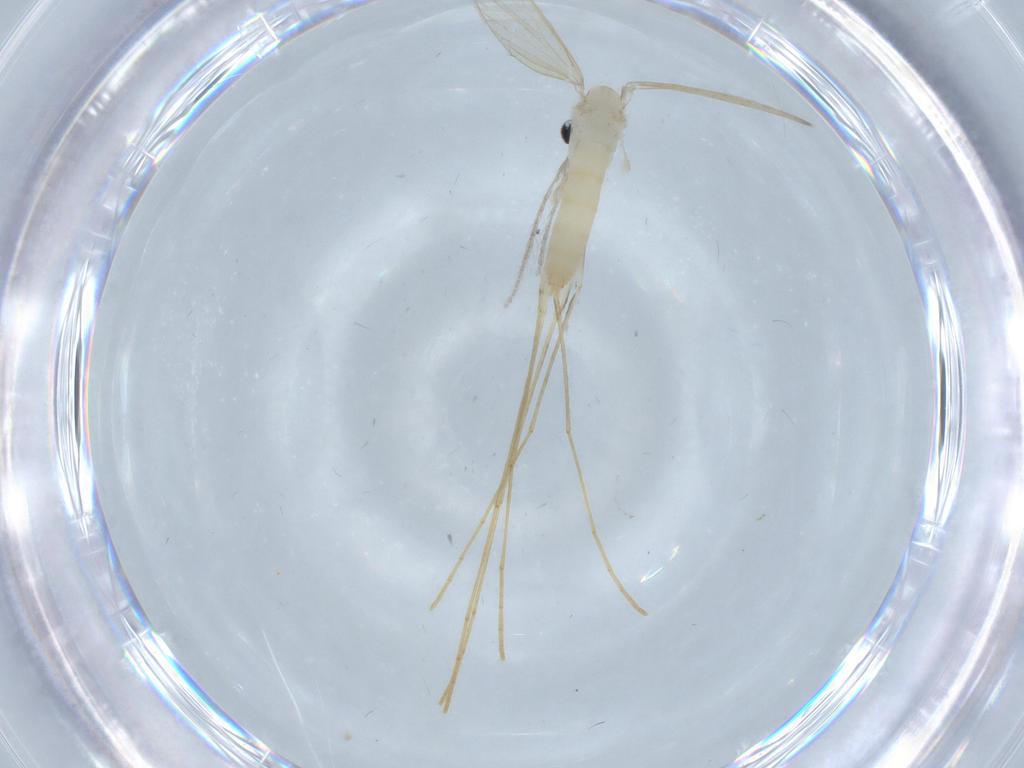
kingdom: Animalia
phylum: Arthropoda
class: Insecta
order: Diptera
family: Psychodidae
